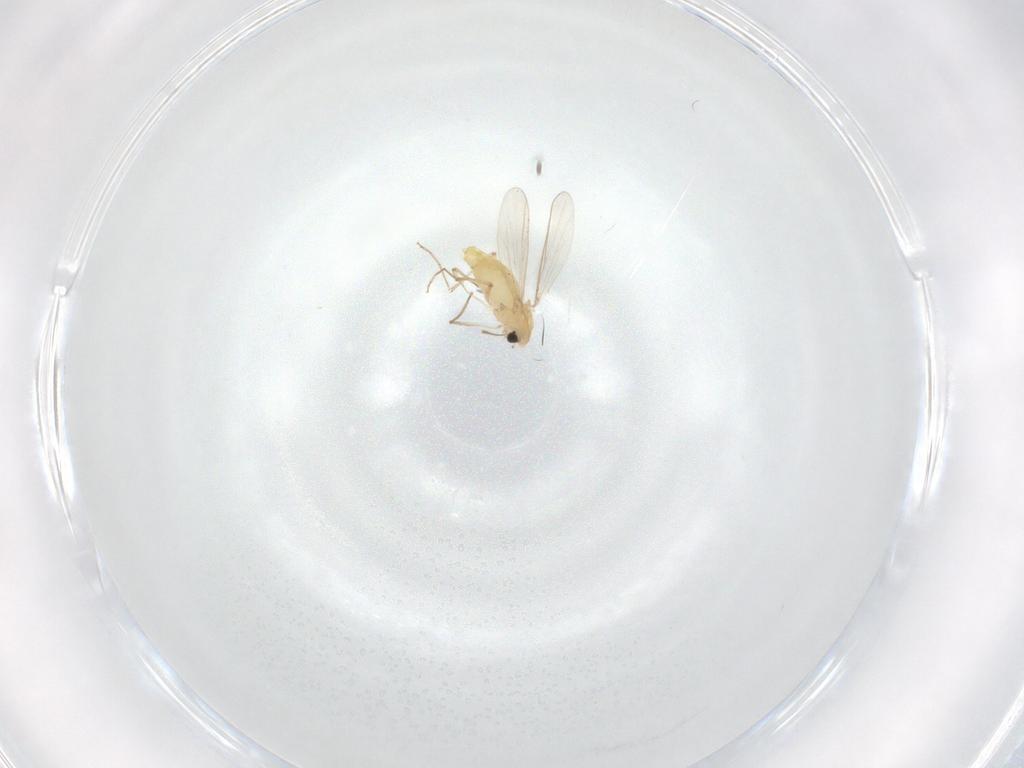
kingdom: Animalia
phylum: Arthropoda
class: Insecta
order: Diptera
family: Chironomidae
